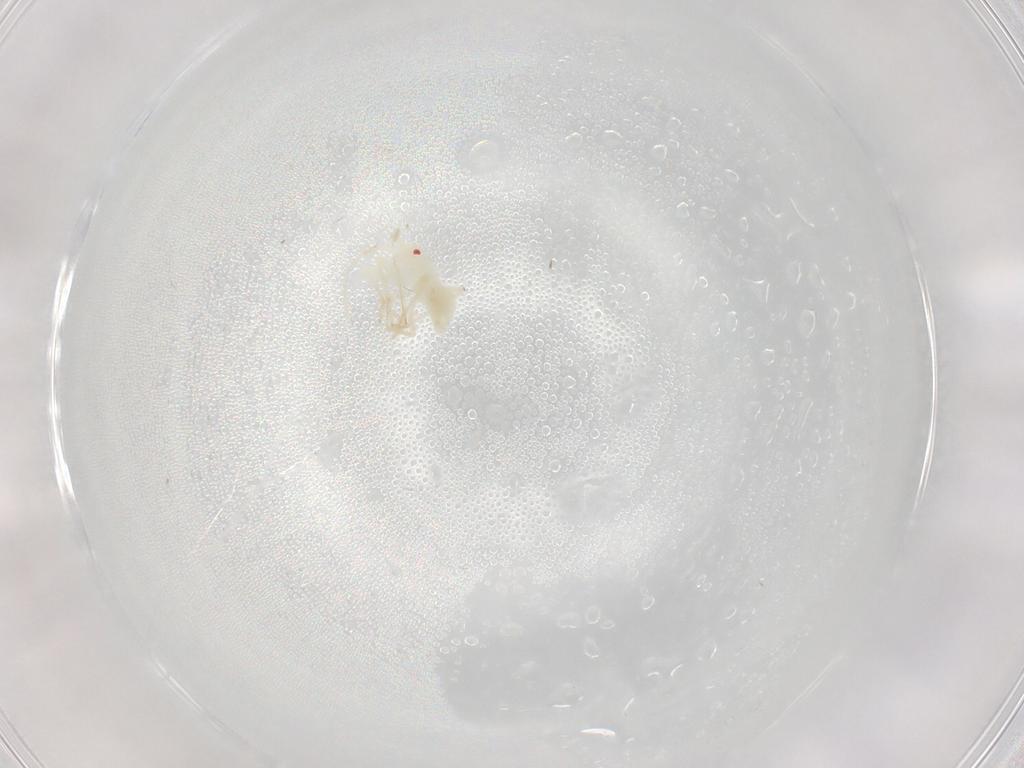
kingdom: Animalia
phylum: Arthropoda
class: Insecta
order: Hemiptera
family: Miridae
